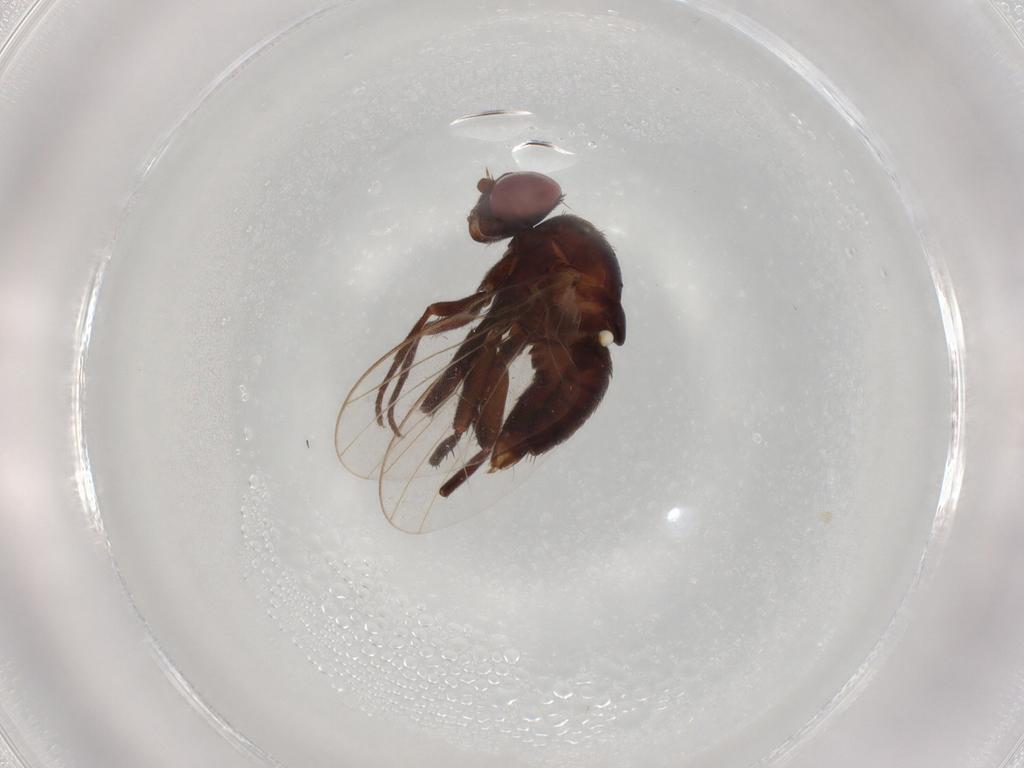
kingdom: Animalia
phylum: Arthropoda
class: Insecta
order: Diptera
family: Agromyzidae
